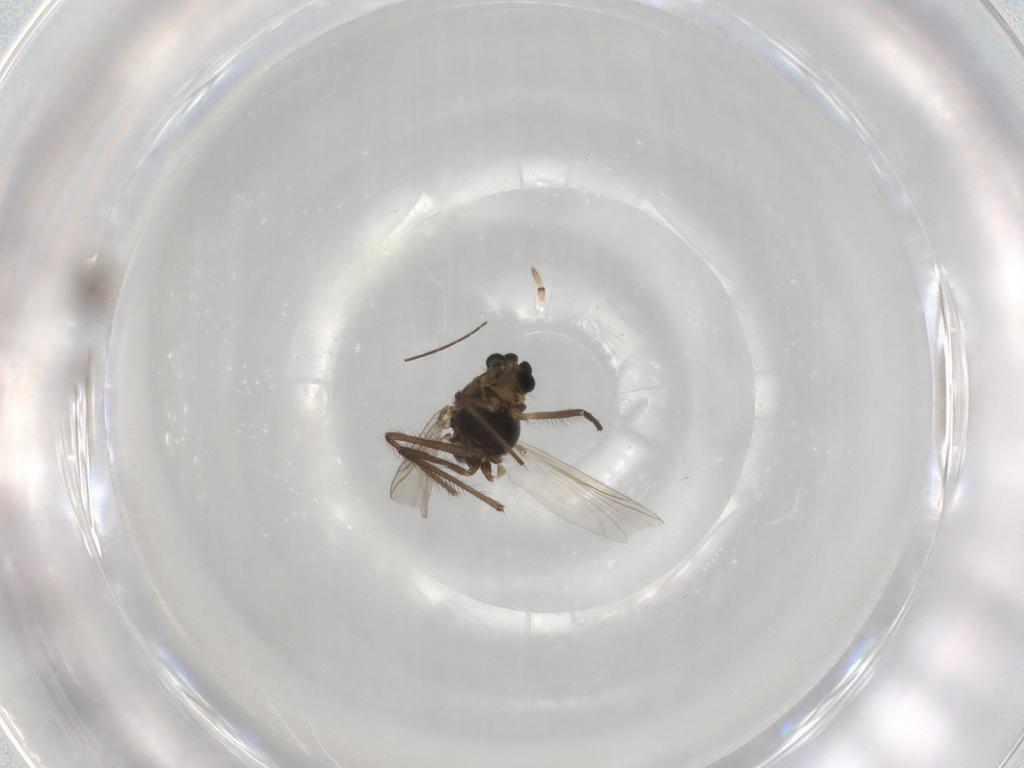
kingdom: Animalia
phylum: Arthropoda
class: Insecta
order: Diptera
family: Chironomidae
